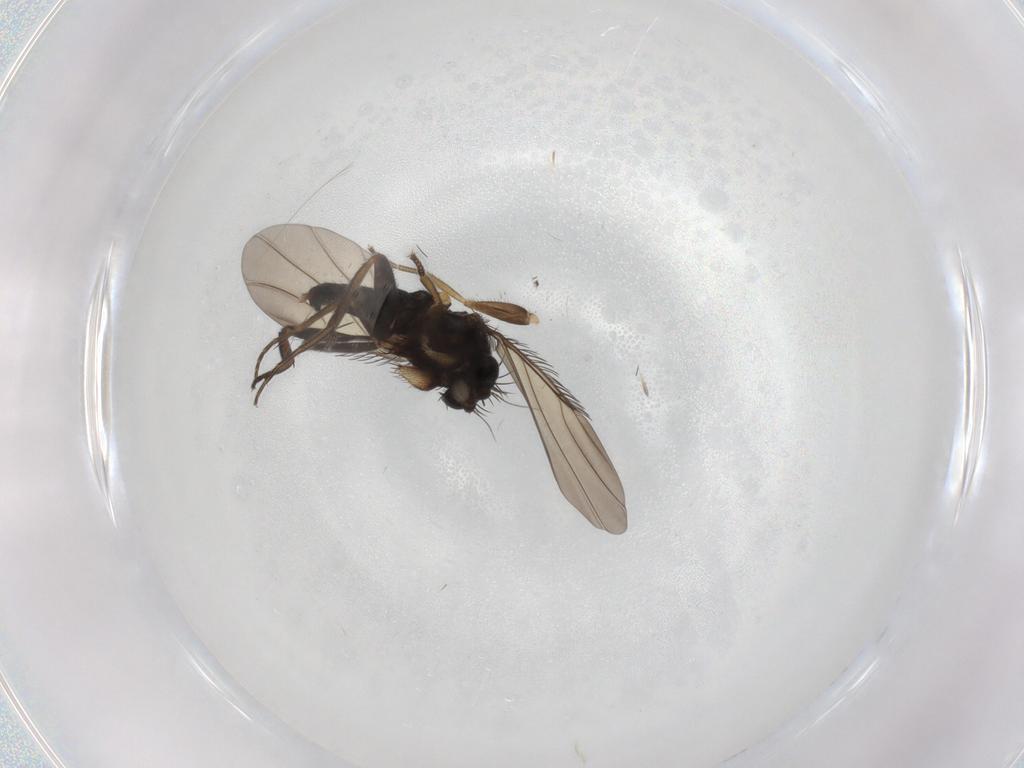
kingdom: Animalia
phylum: Arthropoda
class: Insecta
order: Diptera
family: Phoridae
